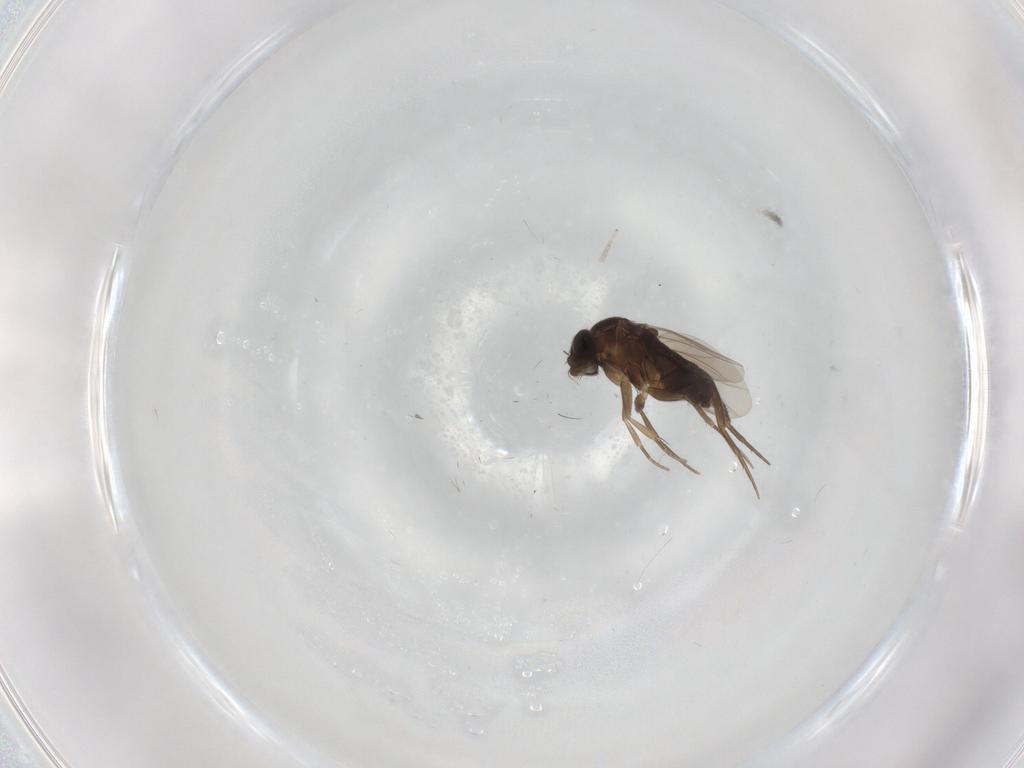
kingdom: Animalia
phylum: Arthropoda
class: Insecta
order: Diptera
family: Phoridae
